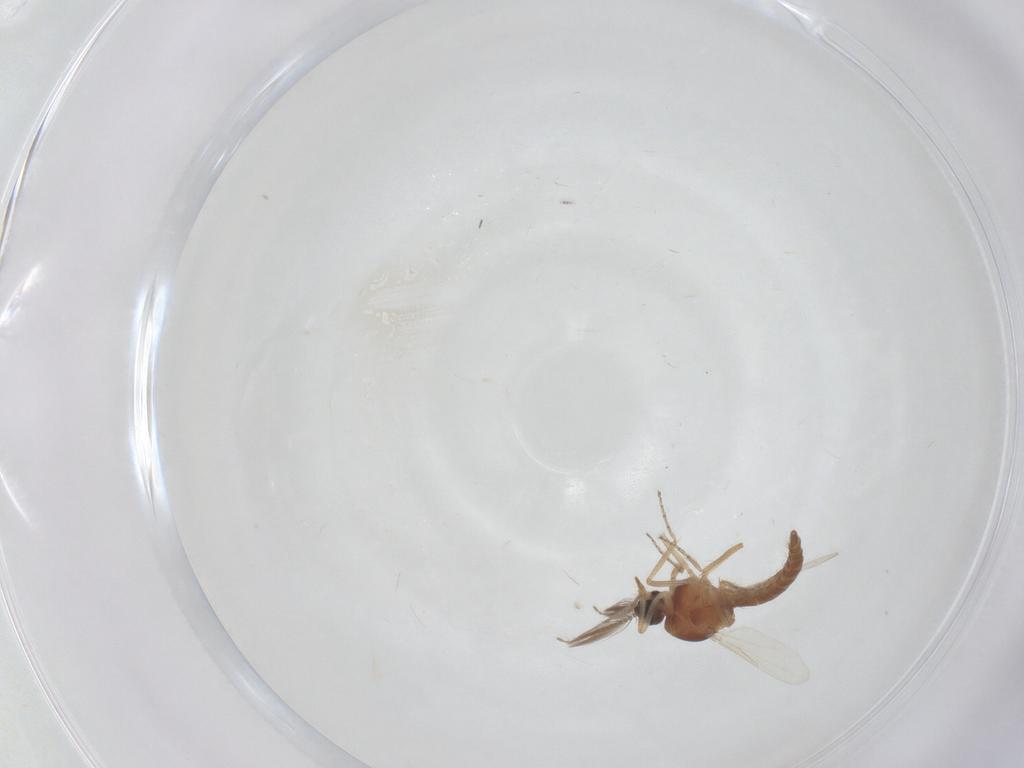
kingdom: Animalia
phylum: Arthropoda
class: Insecta
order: Diptera
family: Ceratopogonidae
